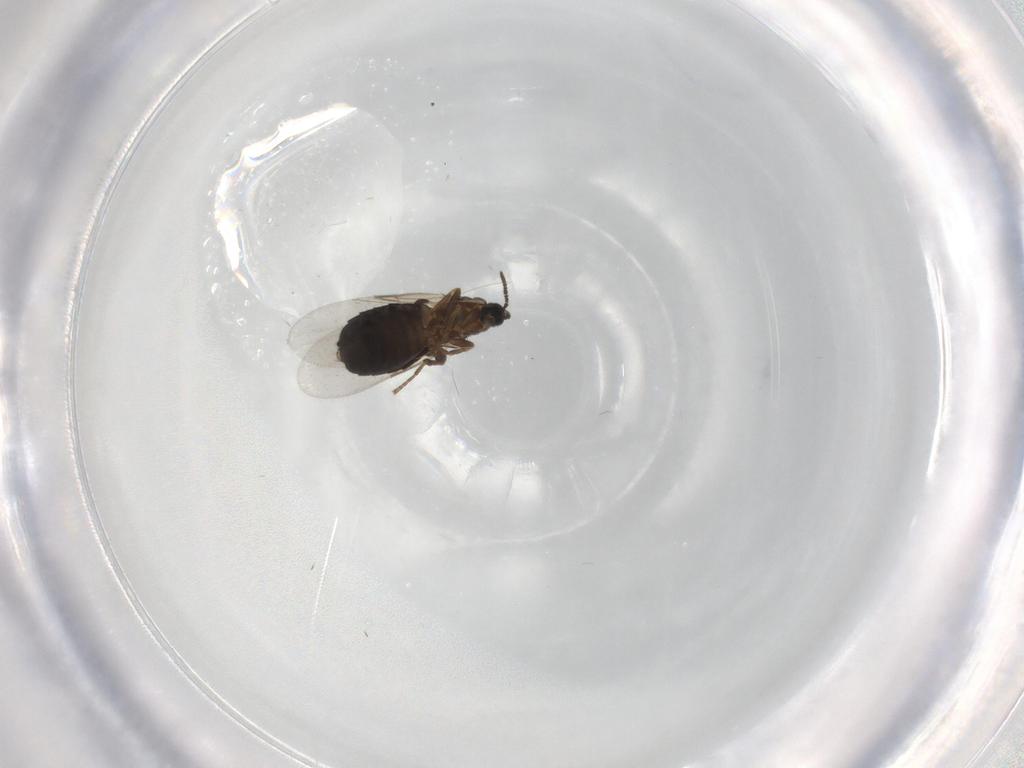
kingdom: Animalia
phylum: Arthropoda
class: Insecta
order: Diptera
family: Scatopsidae
